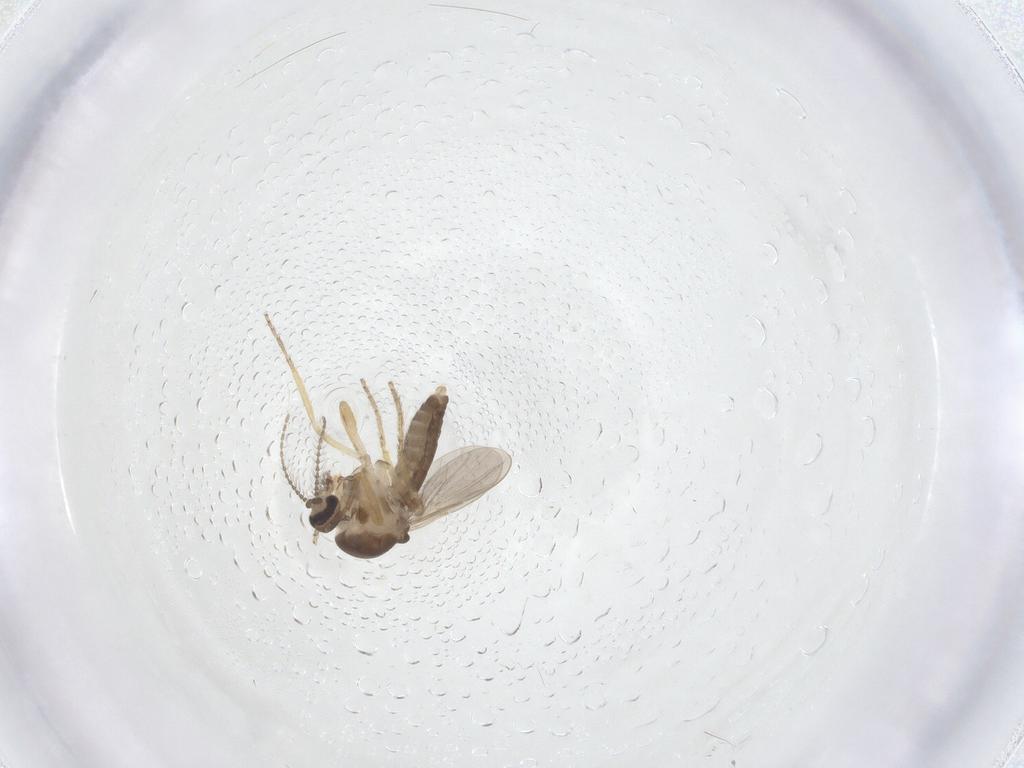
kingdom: Animalia
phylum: Arthropoda
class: Insecta
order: Diptera
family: Ceratopogonidae
